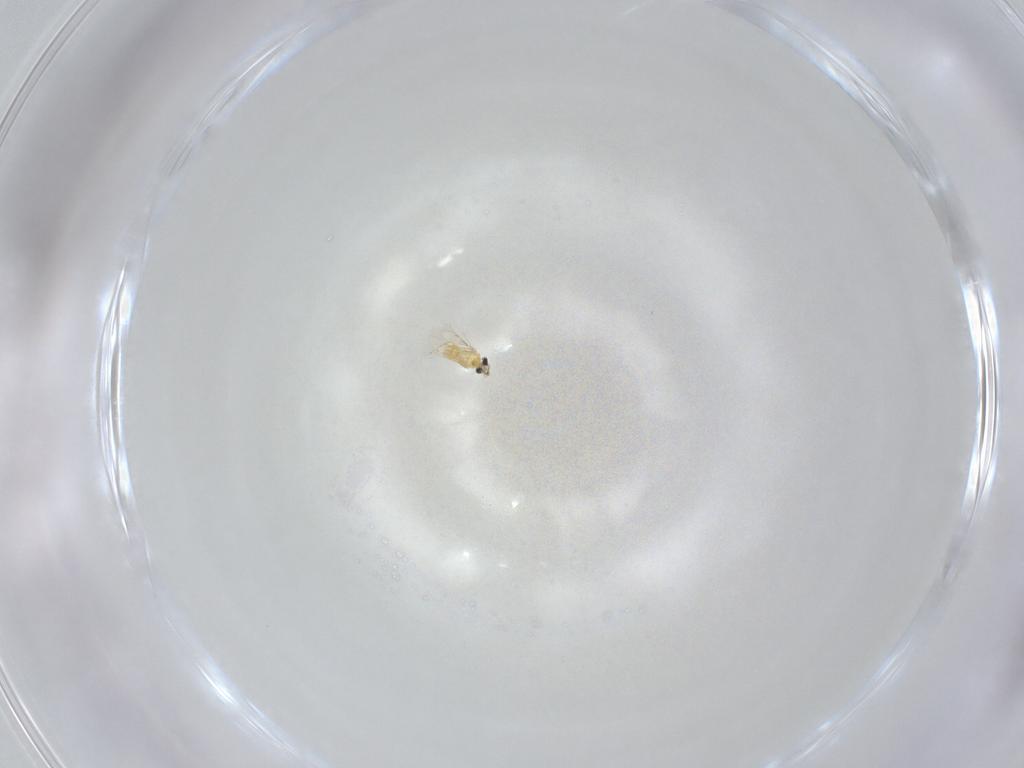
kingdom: Animalia
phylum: Arthropoda
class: Insecta
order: Hymenoptera
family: Trichogrammatidae
